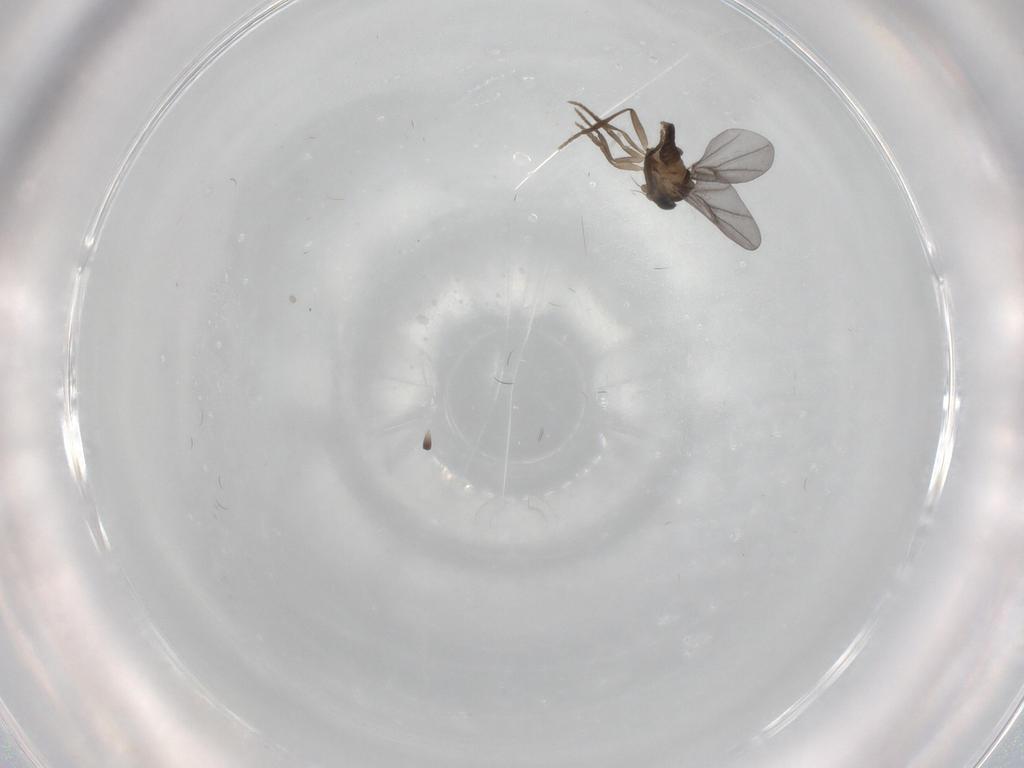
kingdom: Animalia
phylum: Arthropoda
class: Insecta
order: Diptera
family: Phoridae
